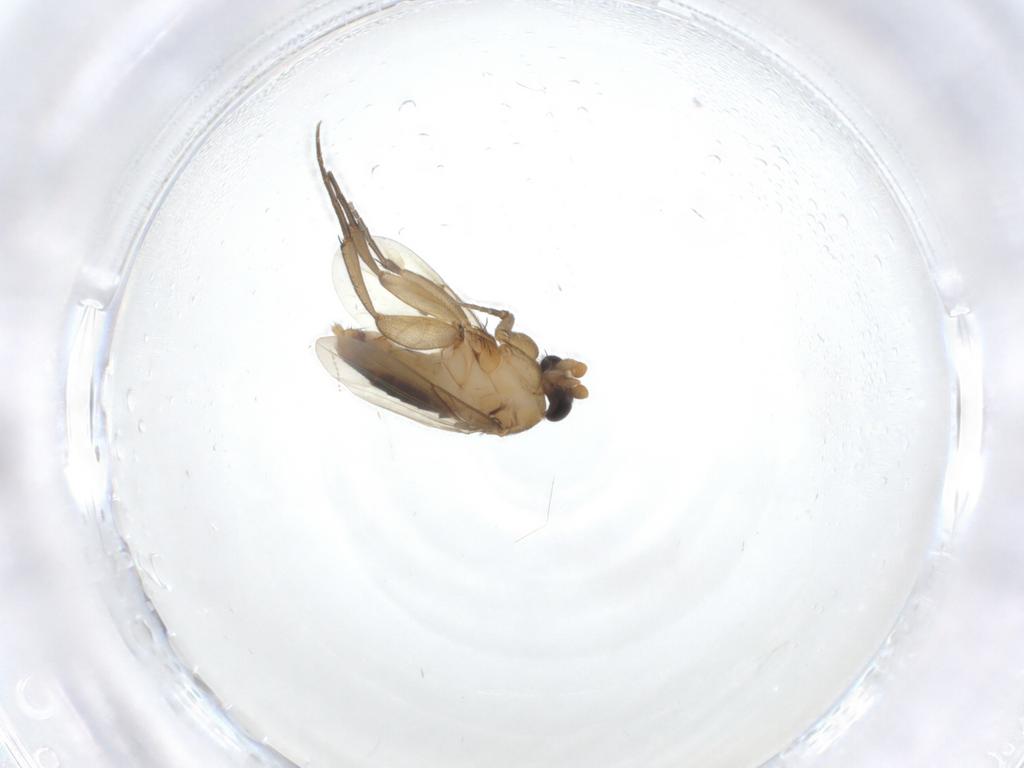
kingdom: Animalia
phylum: Arthropoda
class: Insecta
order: Diptera
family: Phoridae
